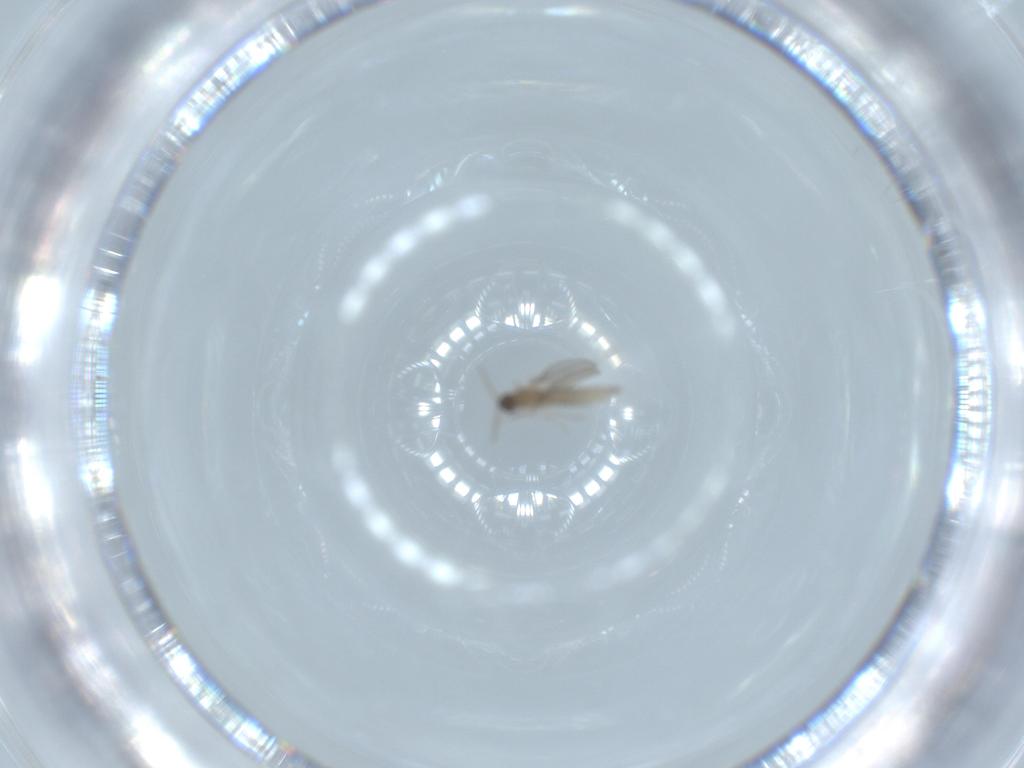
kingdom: Animalia
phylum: Arthropoda
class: Insecta
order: Diptera
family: Cecidomyiidae
